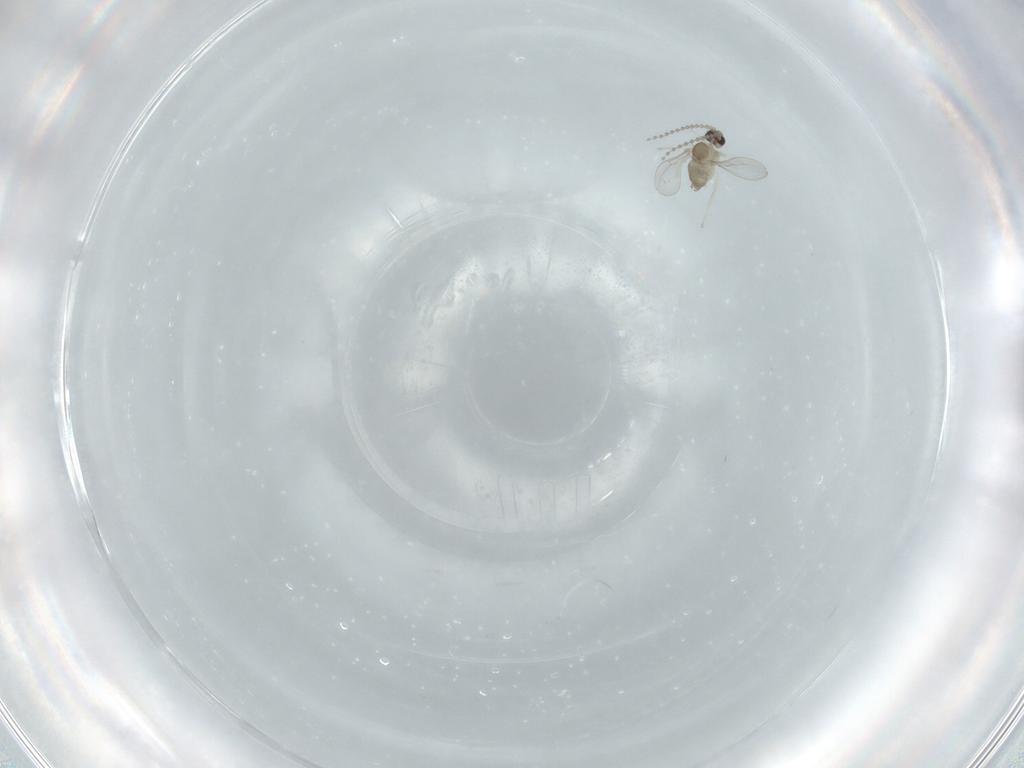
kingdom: Animalia
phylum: Arthropoda
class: Insecta
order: Diptera
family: Cecidomyiidae
